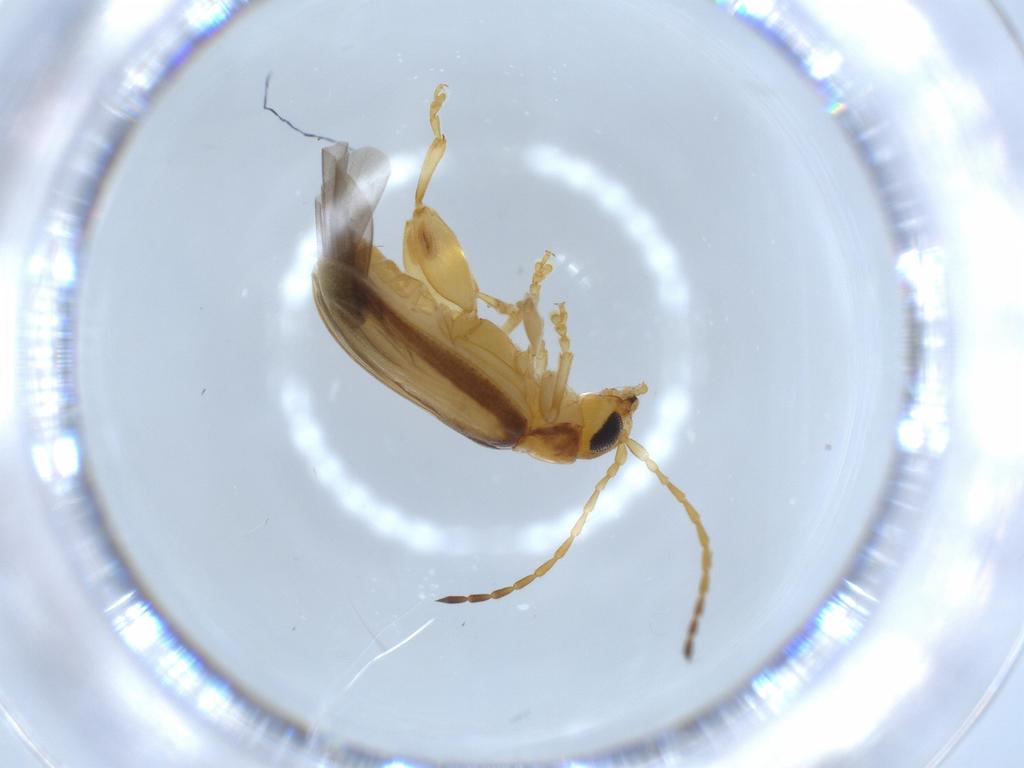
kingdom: Animalia
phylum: Arthropoda
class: Insecta
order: Coleoptera
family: Chrysomelidae
